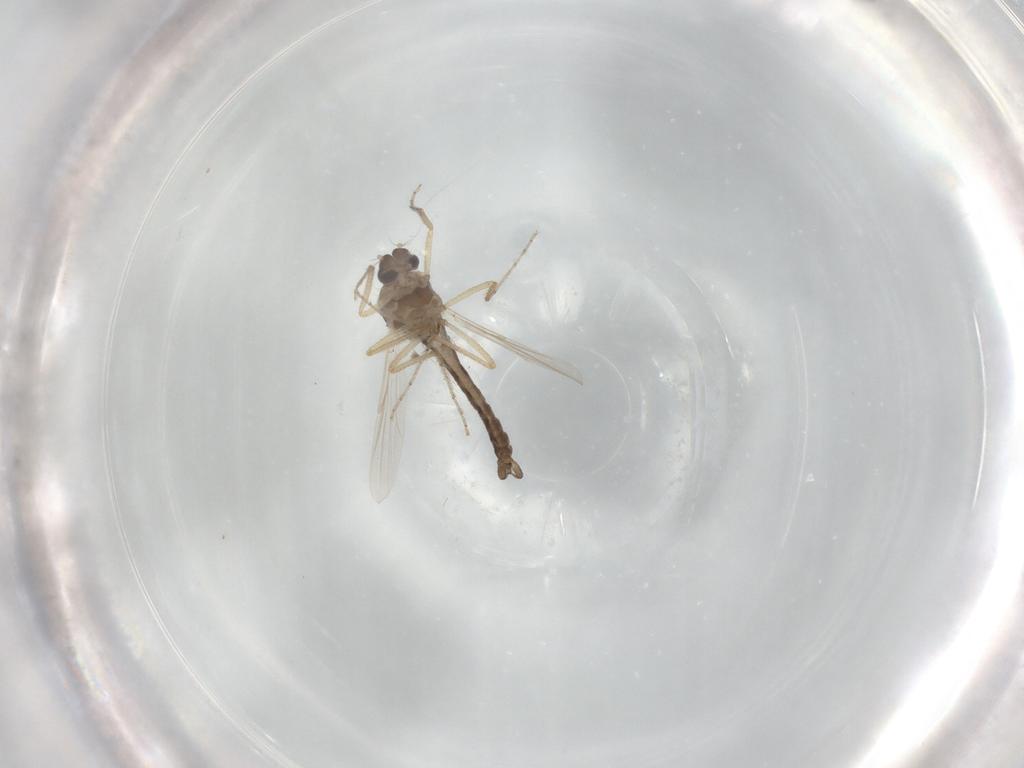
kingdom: Animalia
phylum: Arthropoda
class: Insecta
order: Diptera
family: Ceratopogonidae
